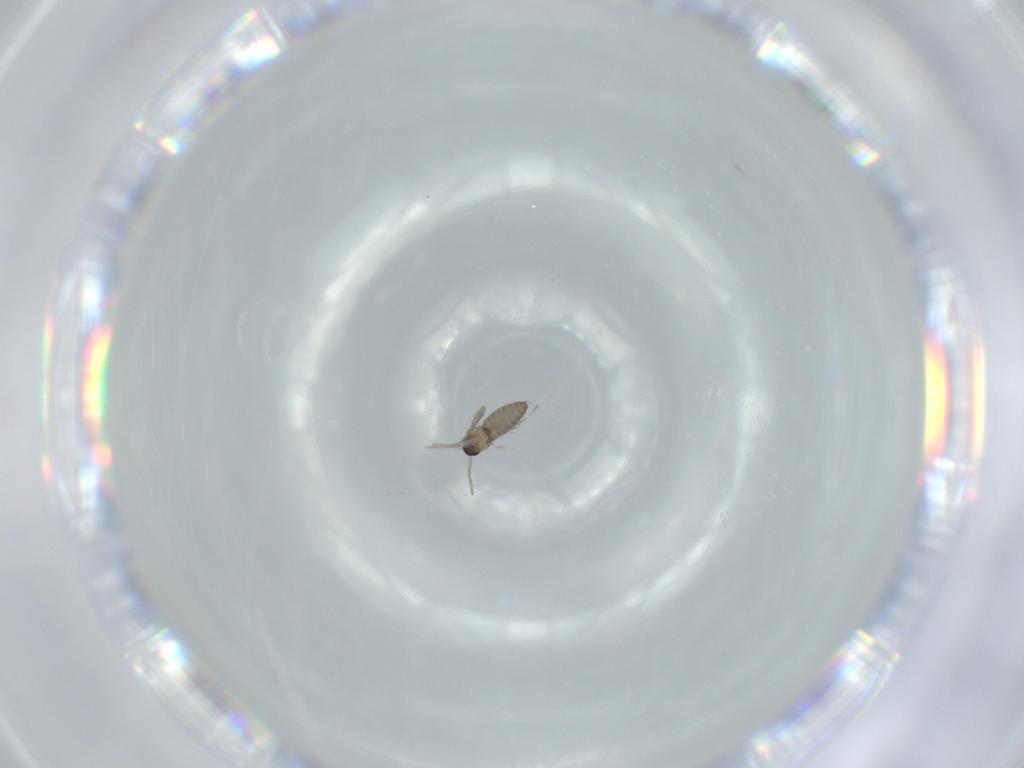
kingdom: Animalia
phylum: Arthropoda
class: Insecta
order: Diptera
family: Cecidomyiidae
